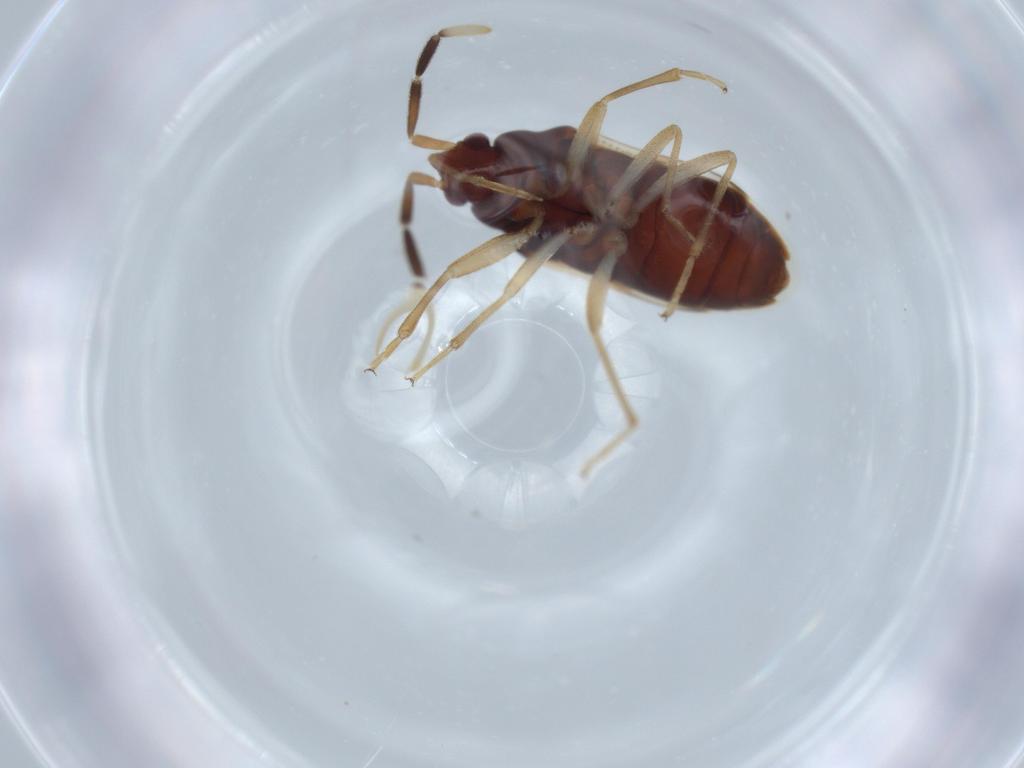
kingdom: Animalia
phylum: Arthropoda
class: Insecta
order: Hemiptera
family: Rhyparochromidae
